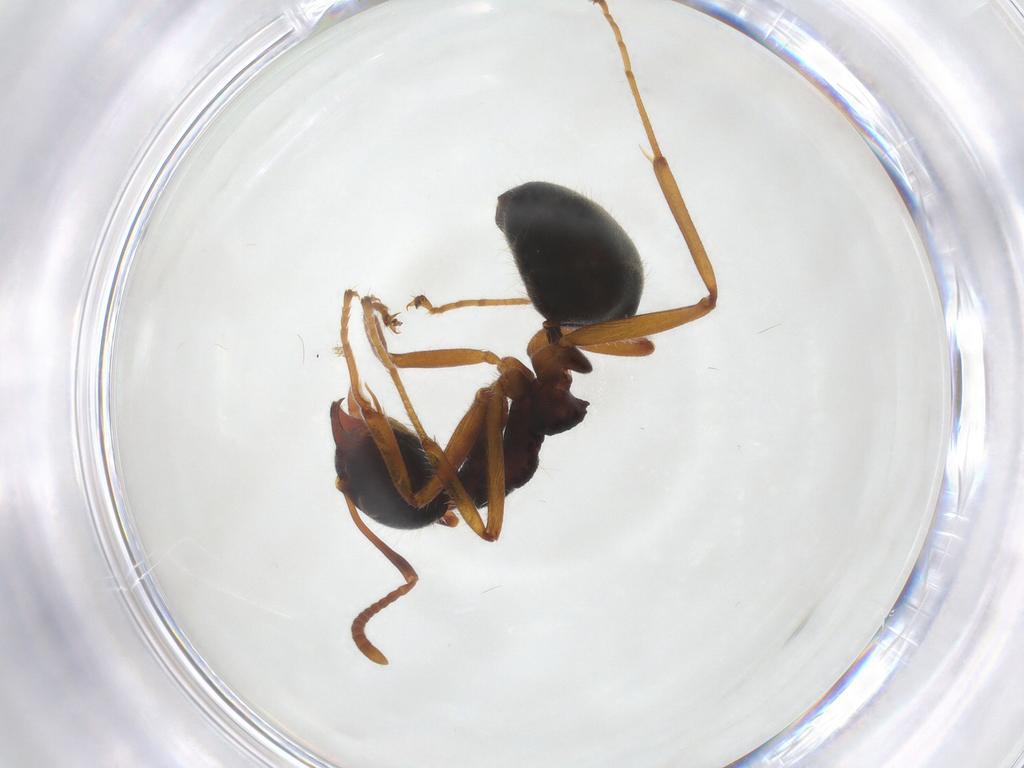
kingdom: Animalia
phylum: Arthropoda
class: Insecta
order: Hymenoptera
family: Formicidae
